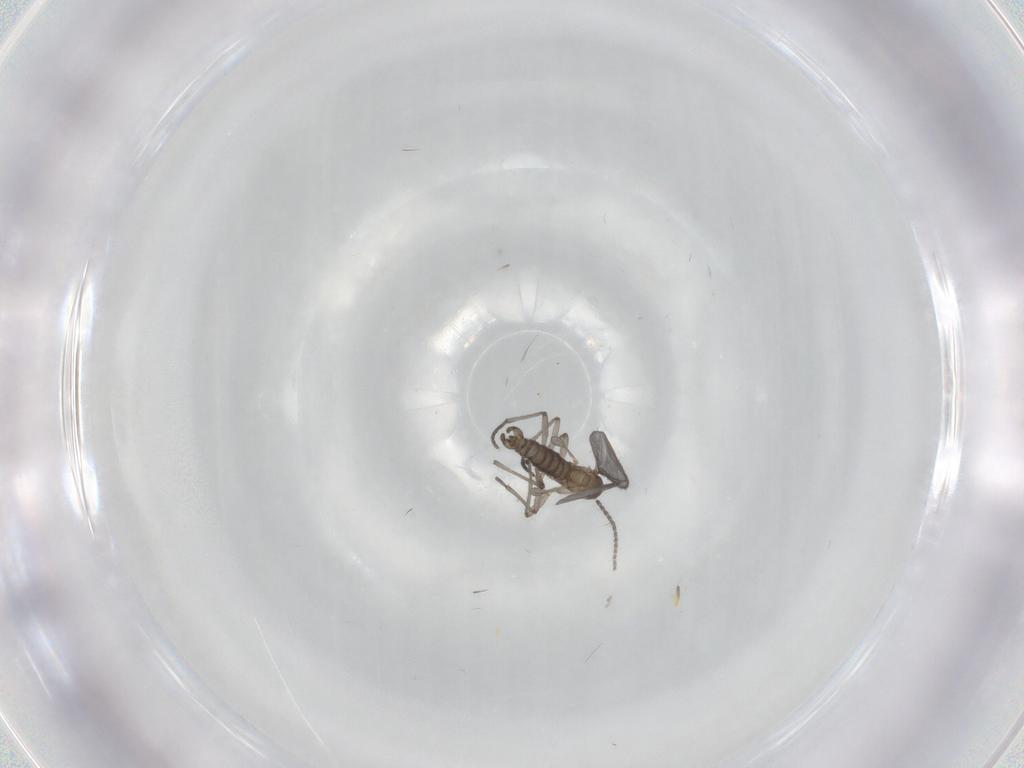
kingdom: Animalia
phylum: Arthropoda
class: Insecta
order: Diptera
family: Sciaridae
